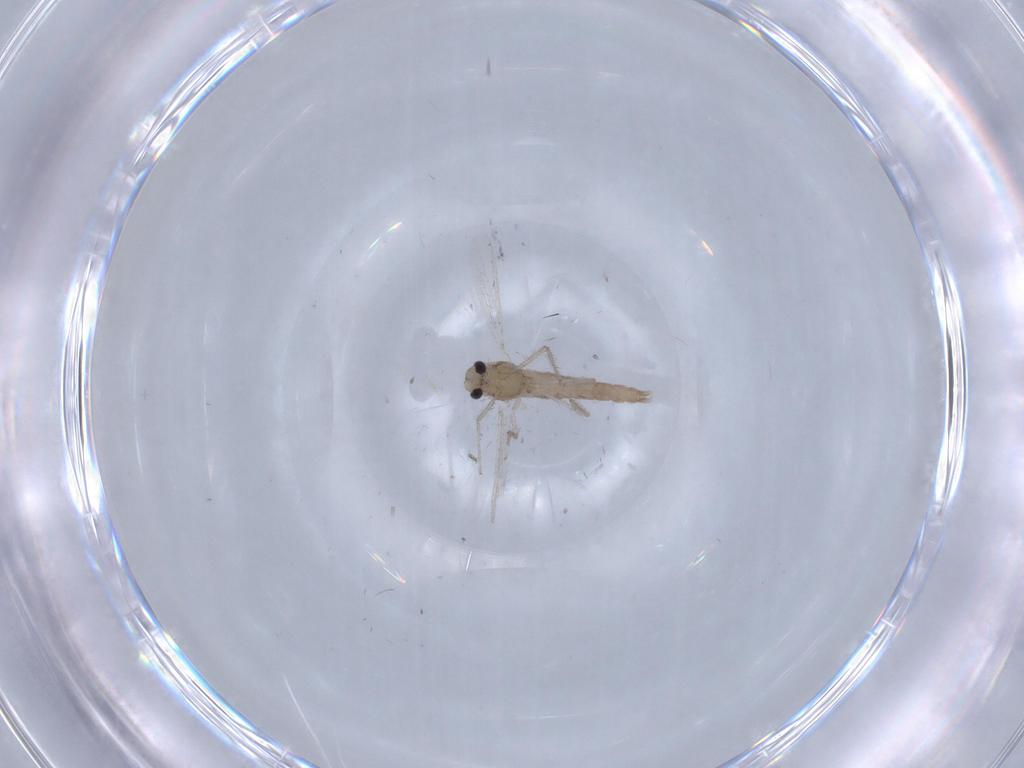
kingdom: Animalia
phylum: Arthropoda
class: Insecta
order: Diptera
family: Chironomidae
